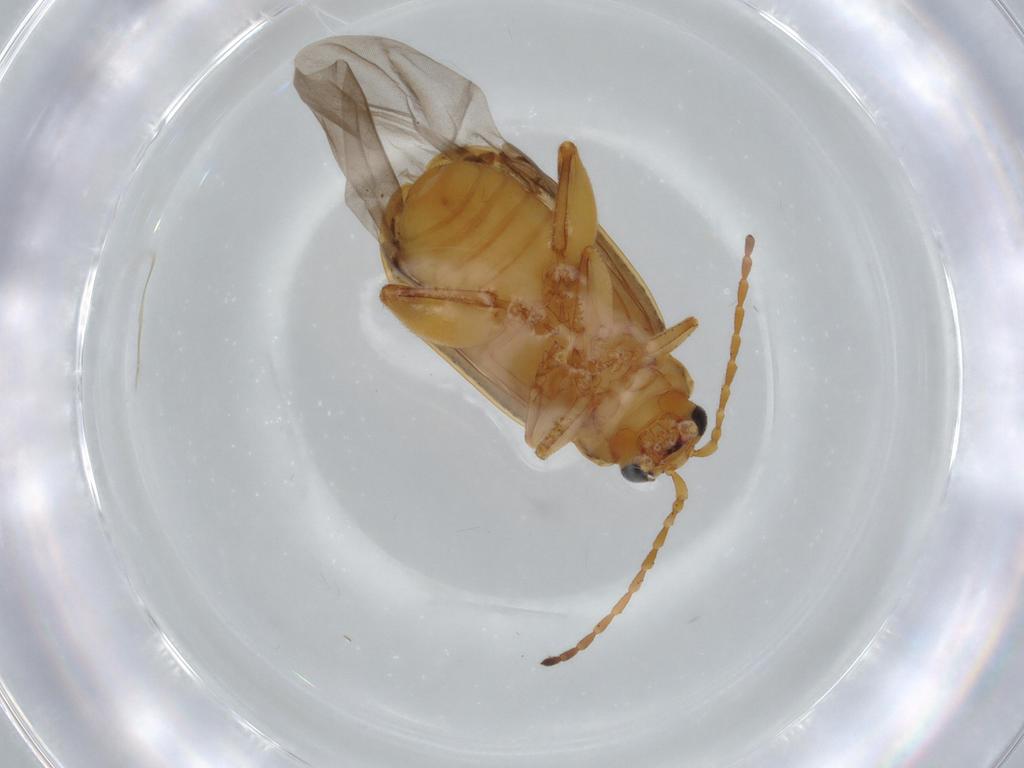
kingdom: Animalia
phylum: Arthropoda
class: Insecta
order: Coleoptera
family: Chrysomelidae
